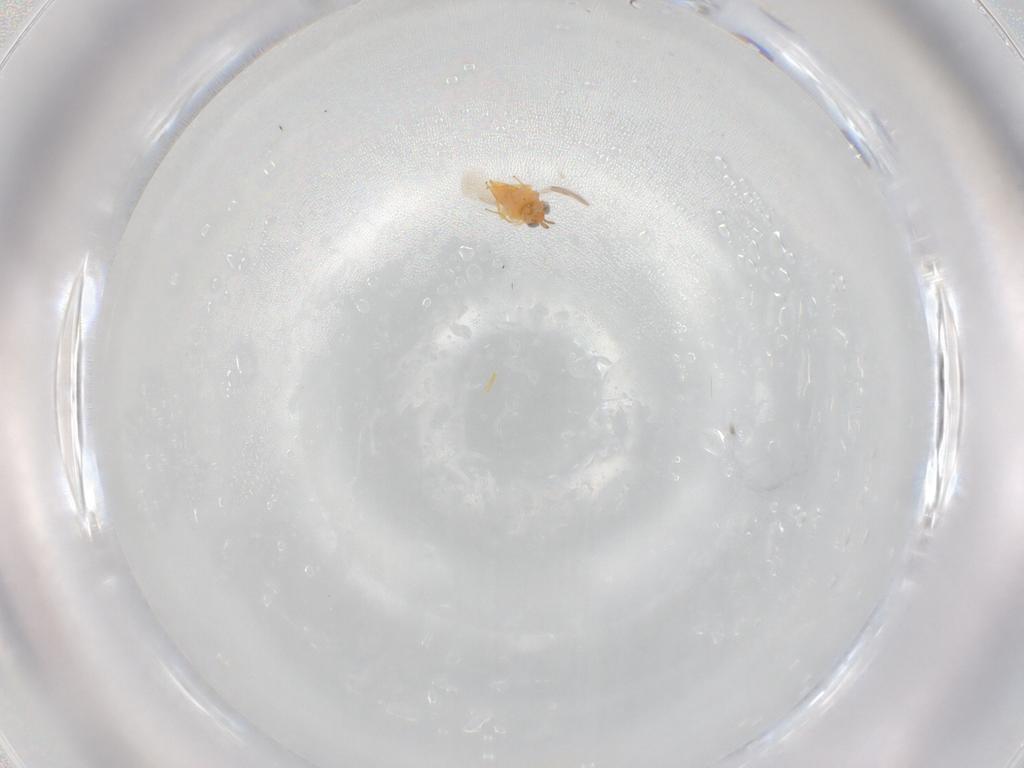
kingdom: Animalia
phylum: Arthropoda
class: Insecta
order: Hymenoptera
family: Aphelinidae
